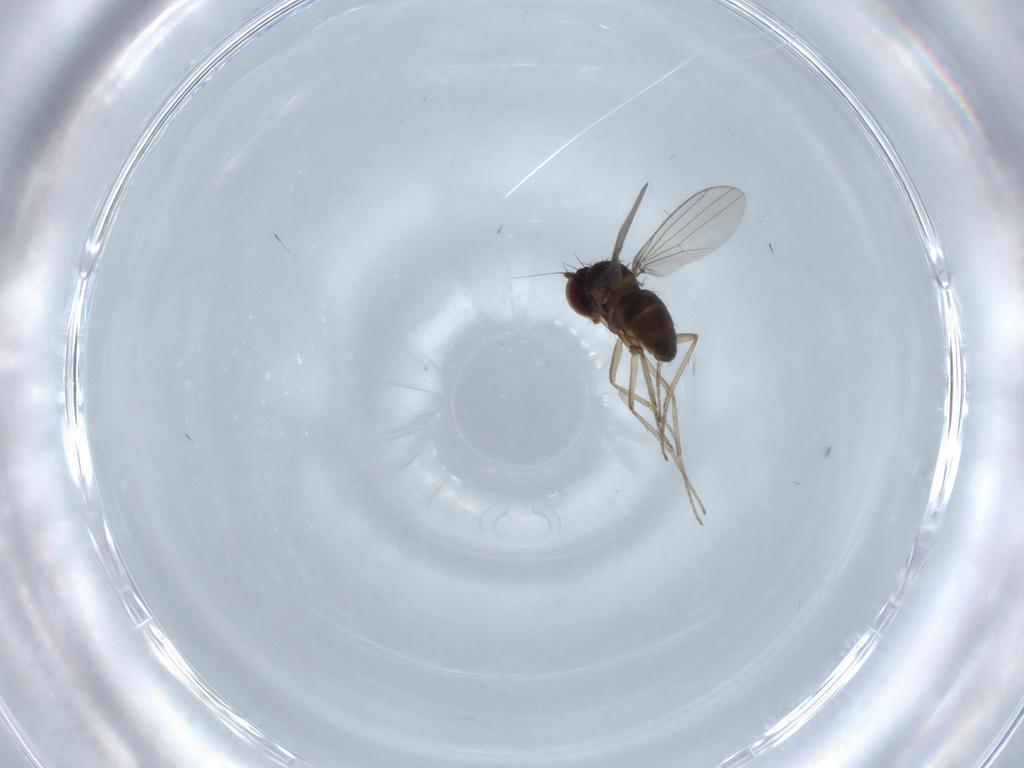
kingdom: Animalia
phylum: Arthropoda
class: Insecta
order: Diptera
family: Dolichopodidae
